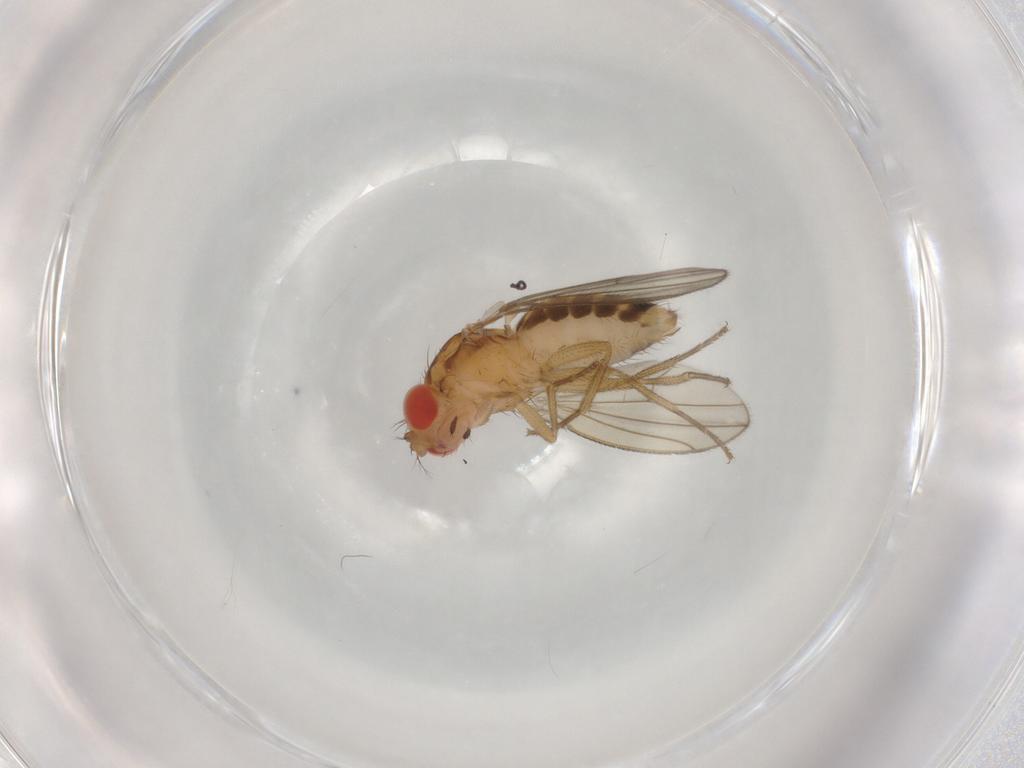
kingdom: Animalia
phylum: Arthropoda
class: Insecta
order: Diptera
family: Drosophilidae
